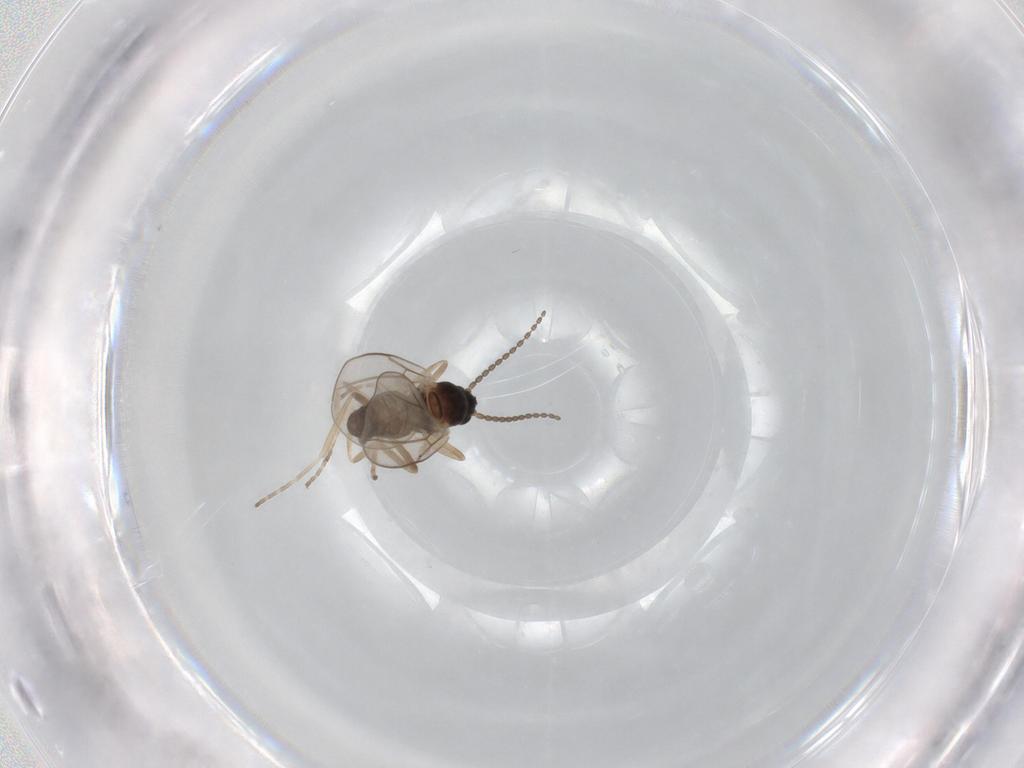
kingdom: Animalia
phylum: Arthropoda
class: Insecta
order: Diptera
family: Cecidomyiidae
